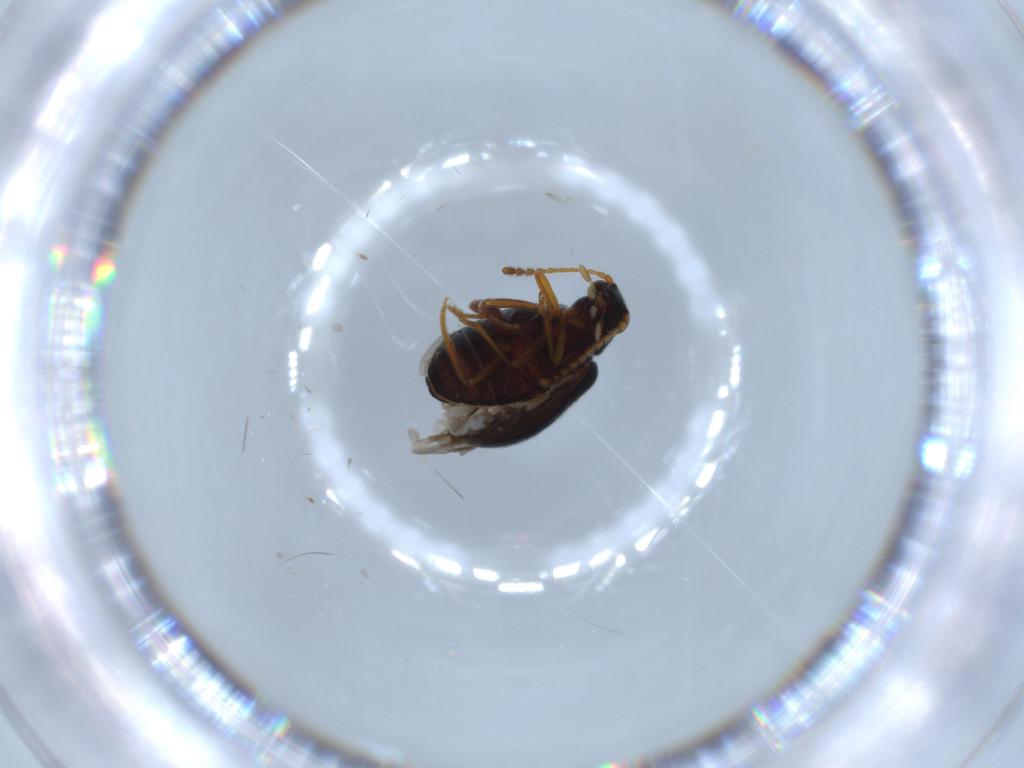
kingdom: Animalia
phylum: Arthropoda
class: Insecta
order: Coleoptera
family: Aderidae
